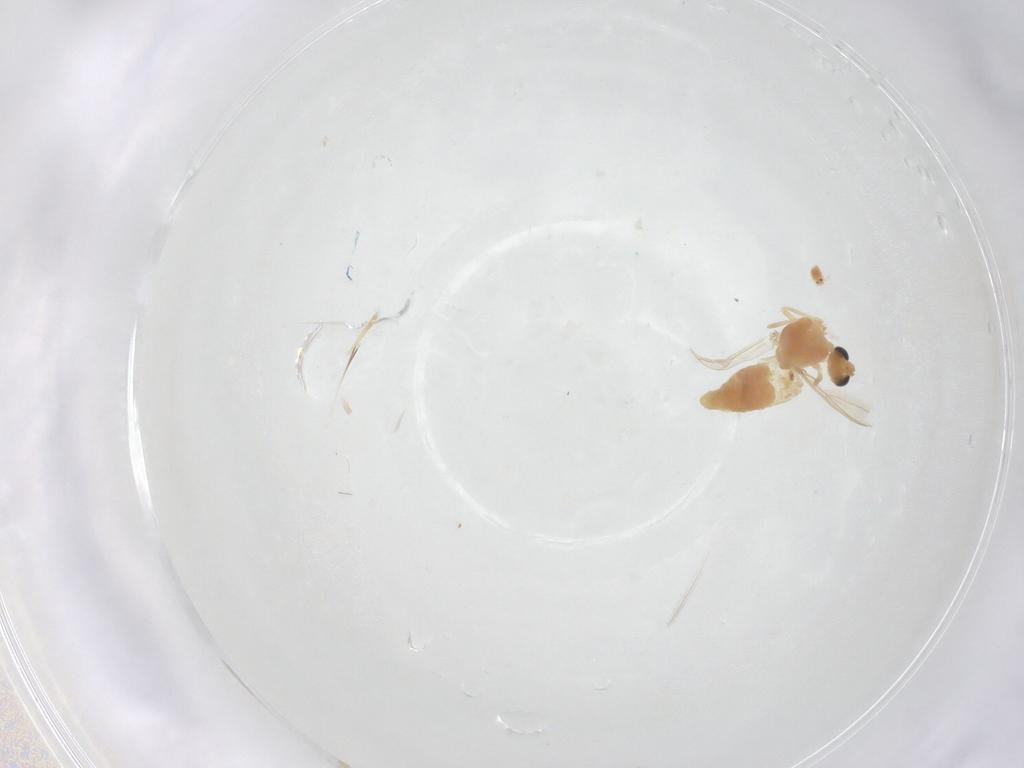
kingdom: Animalia
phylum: Arthropoda
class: Insecta
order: Diptera
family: Chironomidae
